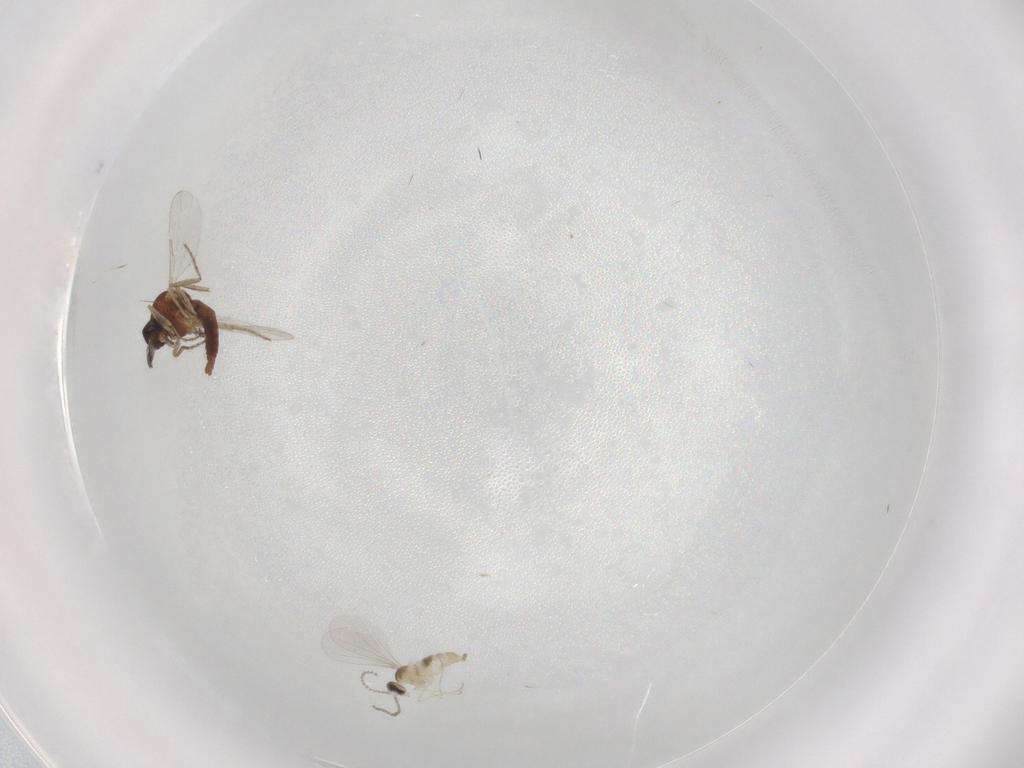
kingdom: Animalia
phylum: Arthropoda
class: Insecta
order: Diptera
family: Cecidomyiidae
